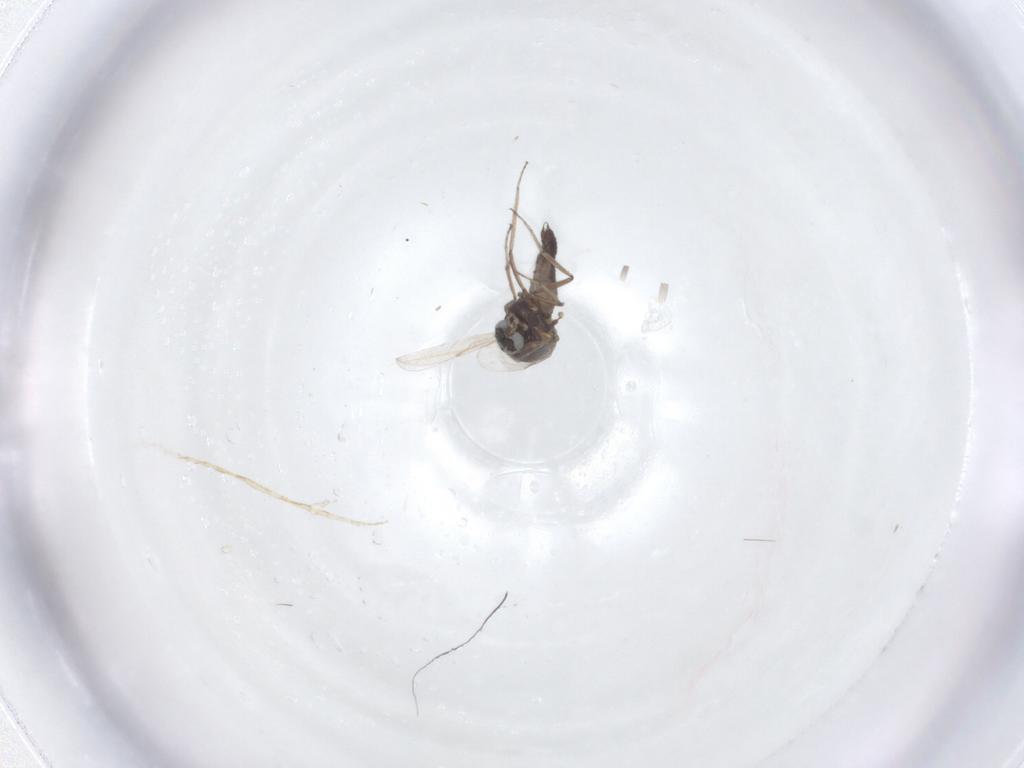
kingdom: Animalia
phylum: Arthropoda
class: Insecta
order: Diptera
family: Ceratopogonidae
